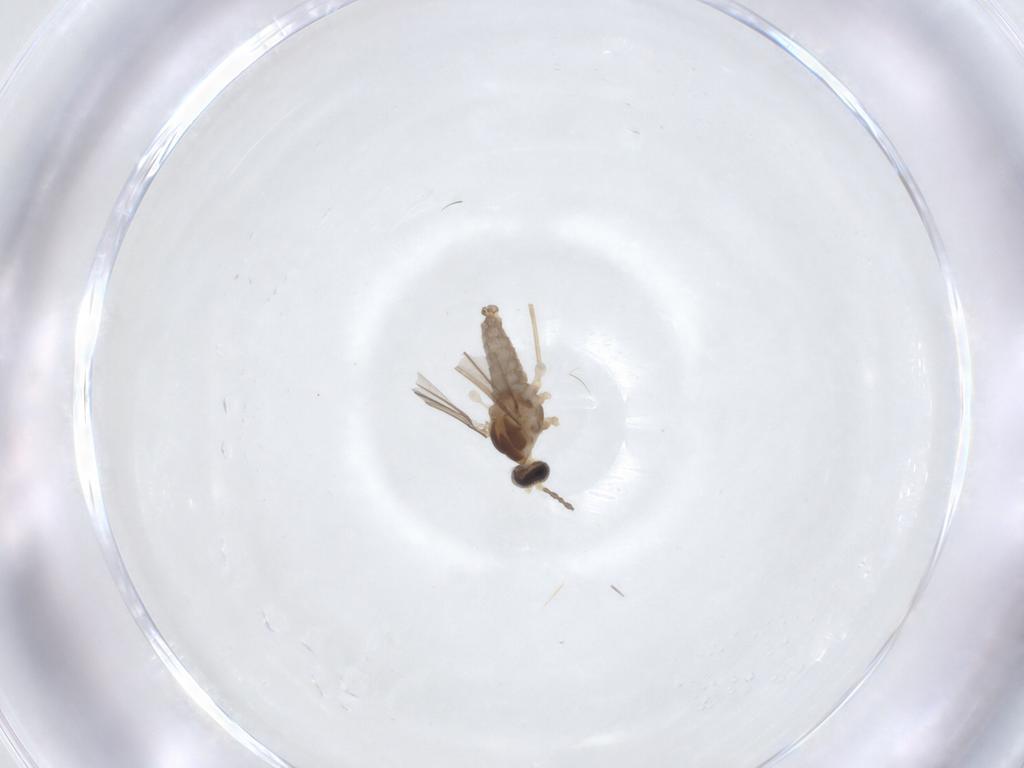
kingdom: Animalia
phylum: Arthropoda
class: Insecta
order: Diptera
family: Cecidomyiidae
